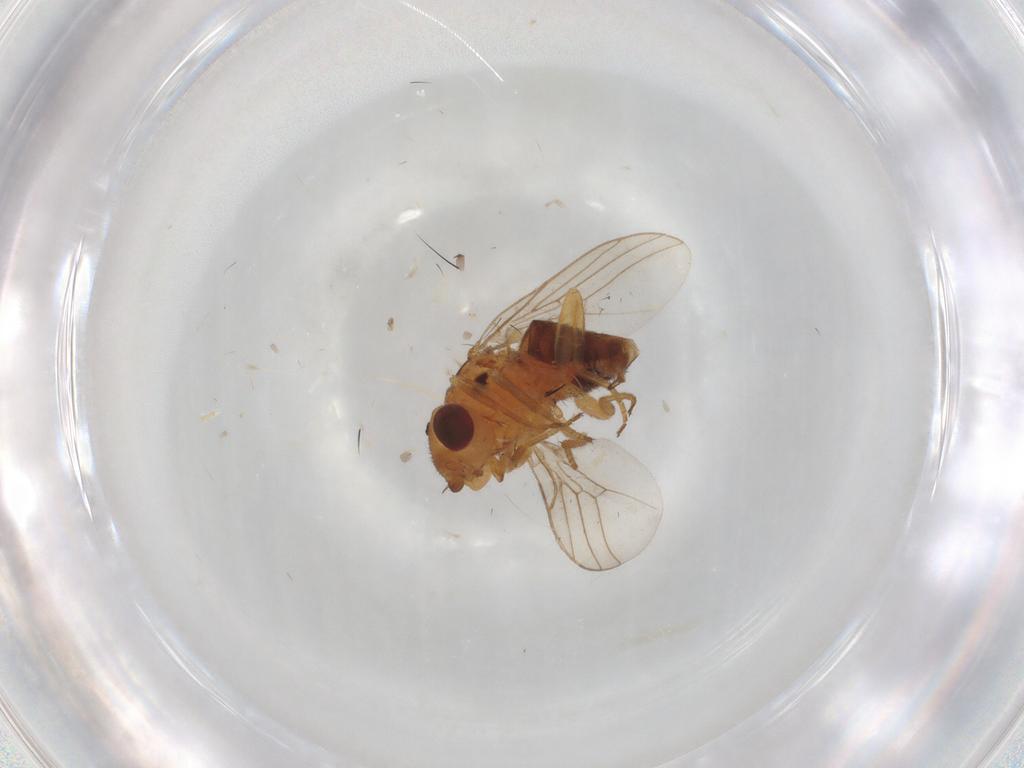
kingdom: Animalia
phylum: Arthropoda
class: Insecta
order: Diptera
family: Chloropidae
